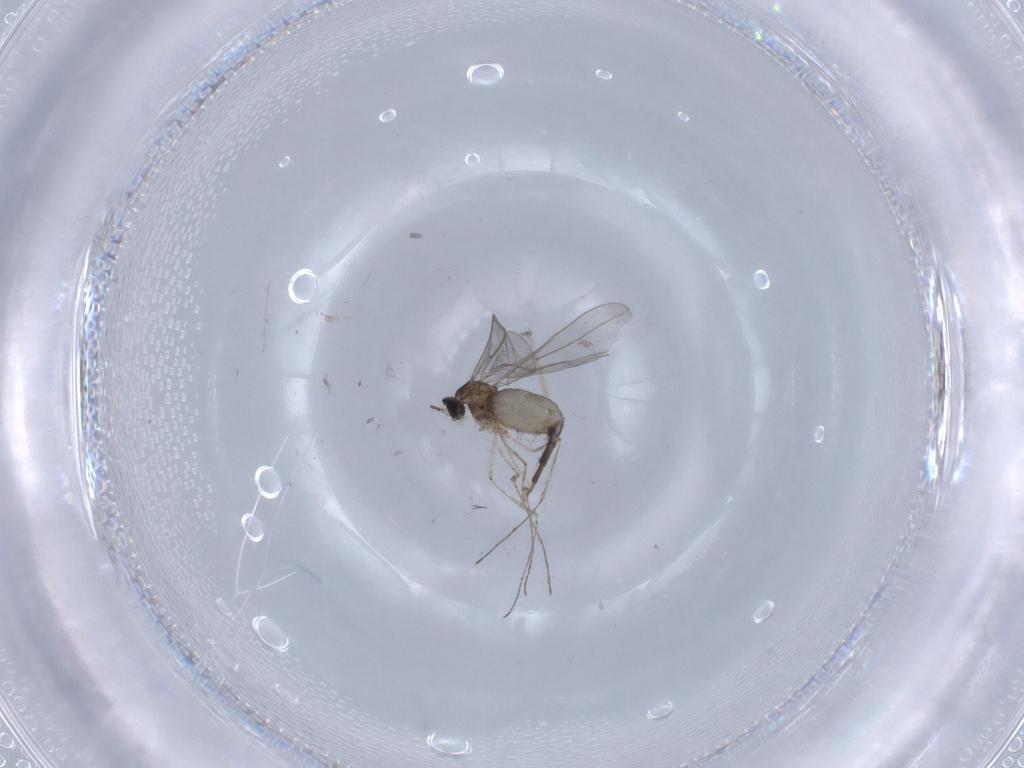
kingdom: Animalia
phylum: Arthropoda
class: Insecta
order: Diptera
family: Cecidomyiidae
